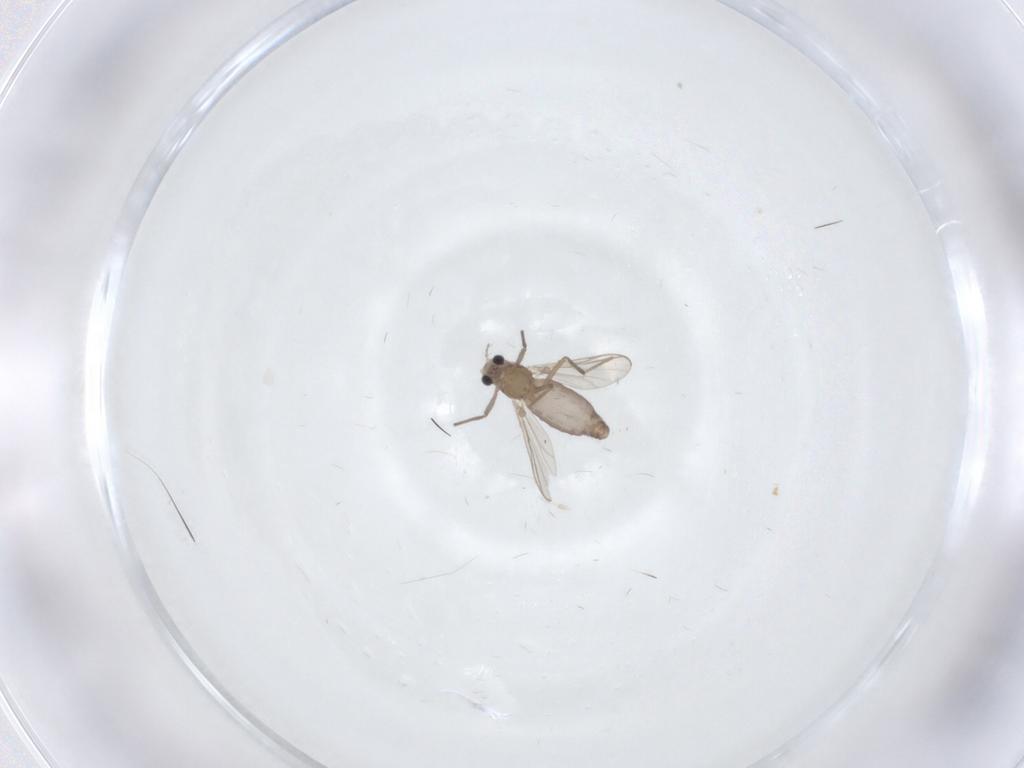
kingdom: Animalia
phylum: Arthropoda
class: Insecta
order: Diptera
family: Chironomidae
